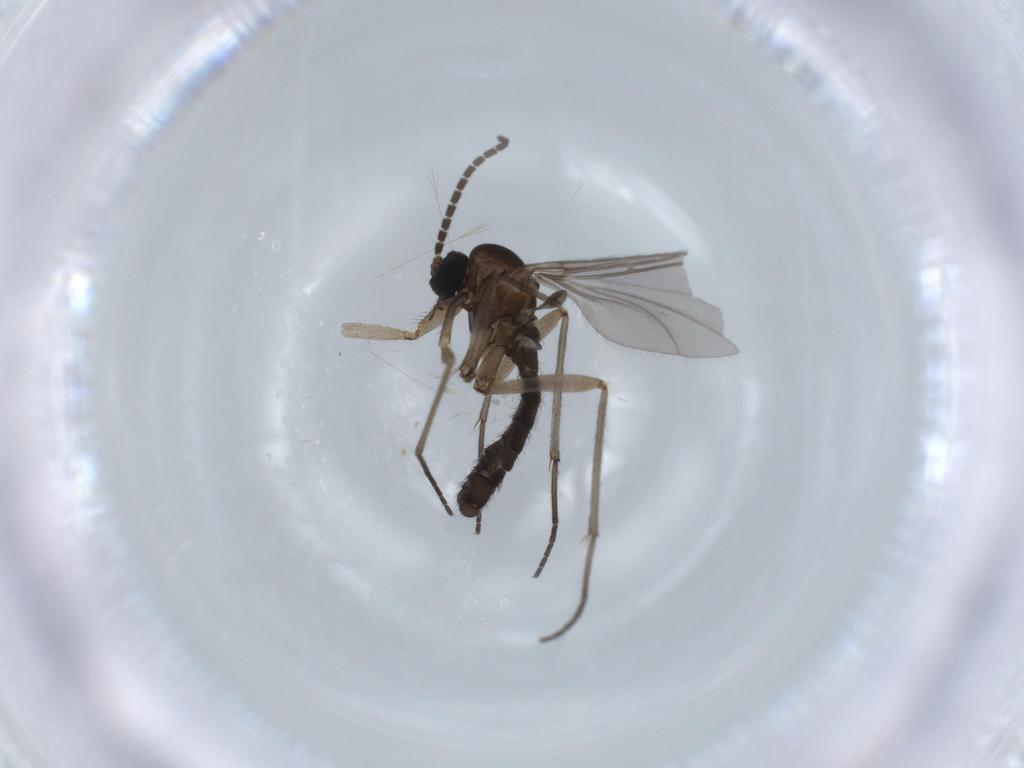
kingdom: Animalia
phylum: Arthropoda
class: Insecta
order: Diptera
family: Sciaridae
